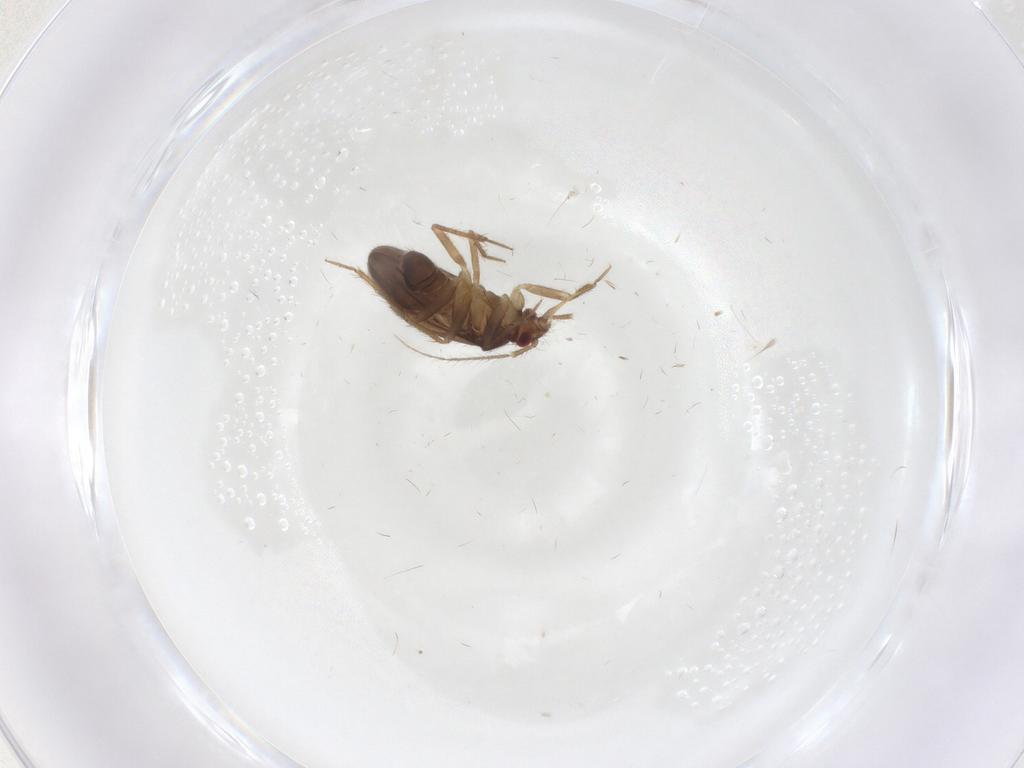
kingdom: Animalia
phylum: Arthropoda
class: Insecta
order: Hemiptera
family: Ceratocombidae
